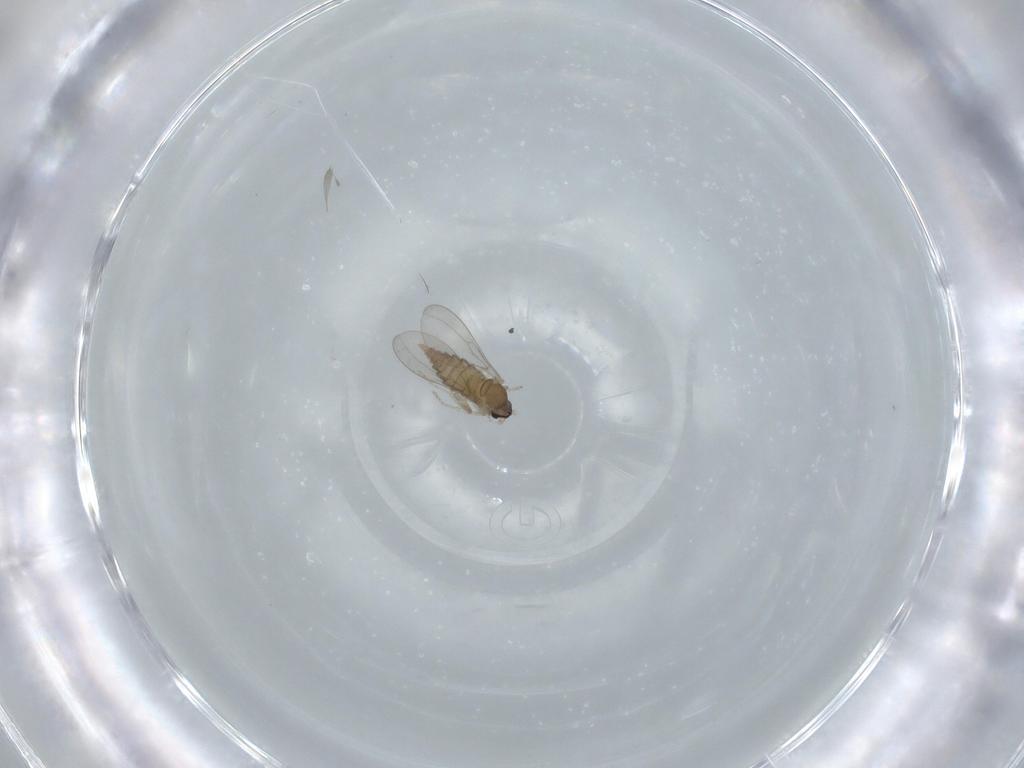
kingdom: Animalia
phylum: Arthropoda
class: Insecta
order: Diptera
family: Cecidomyiidae
